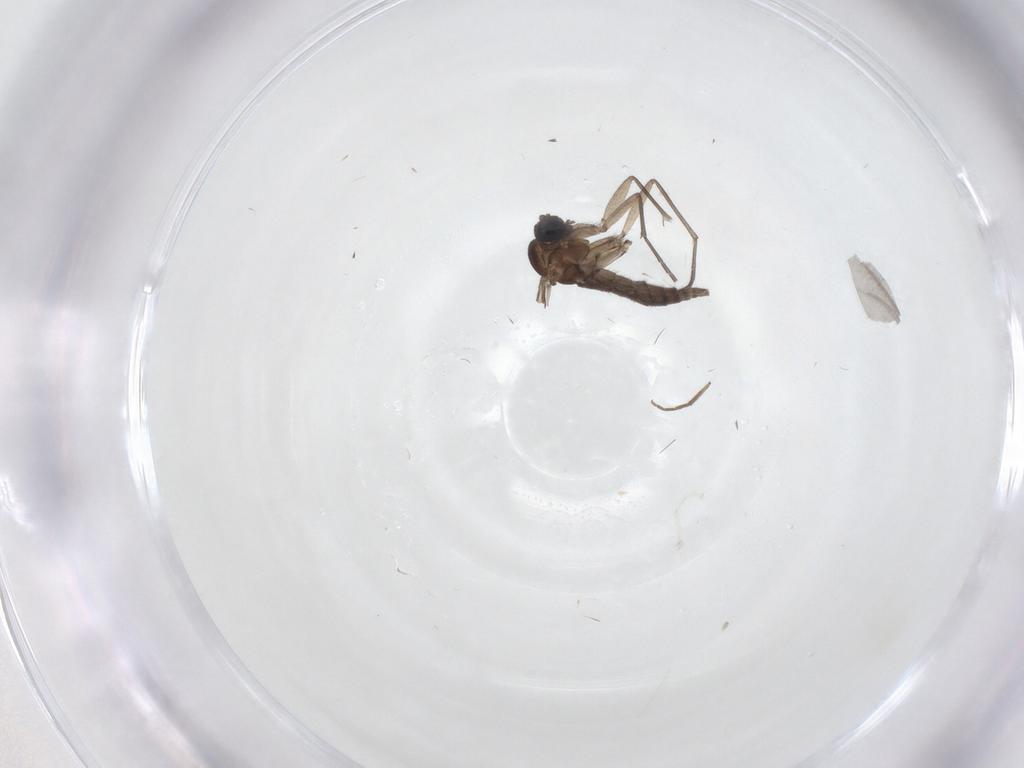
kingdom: Animalia
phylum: Arthropoda
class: Insecta
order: Diptera
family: Sciaridae
